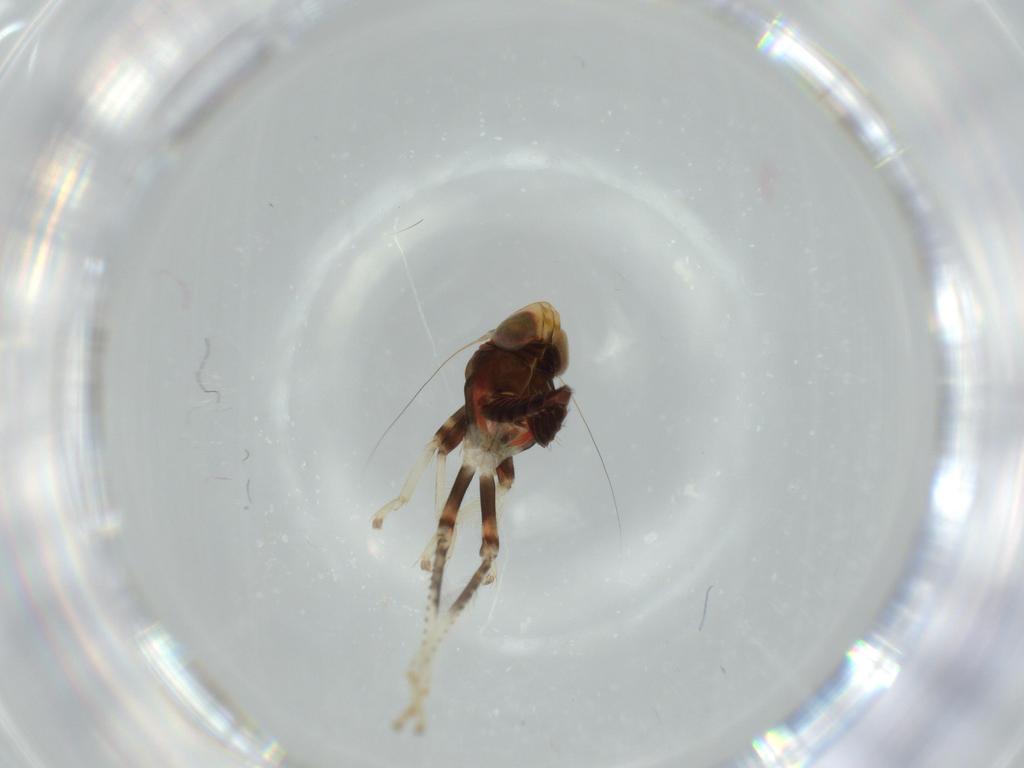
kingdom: Animalia
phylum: Arthropoda
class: Insecta
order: Hemiptera
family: Cicadellidae
